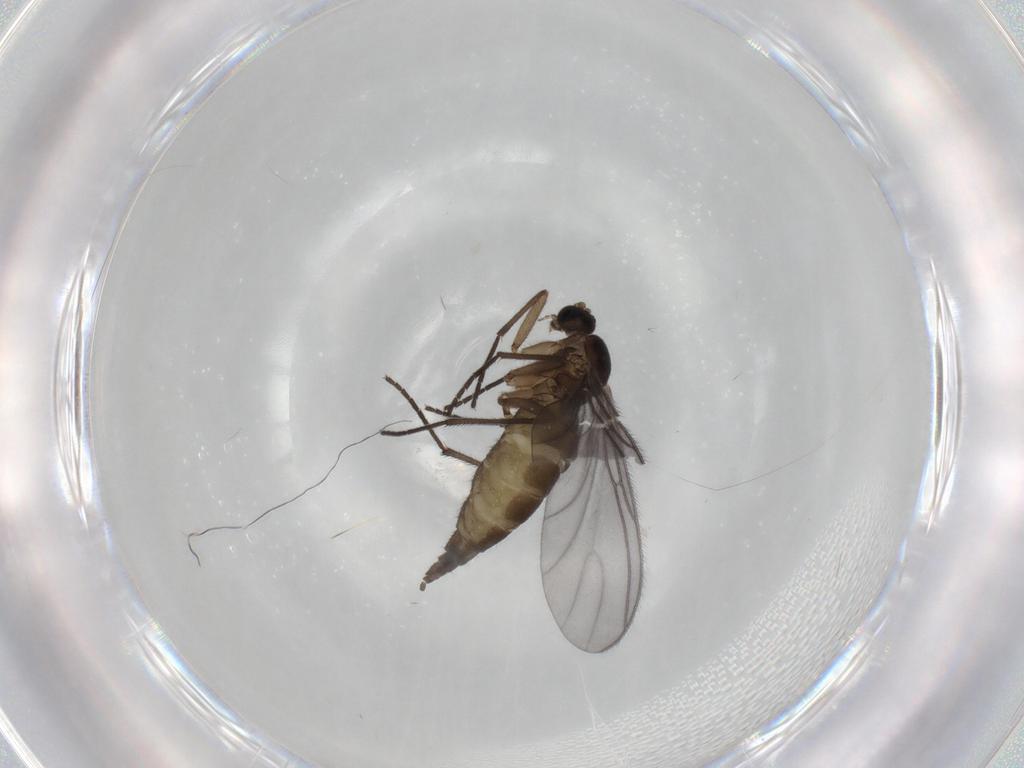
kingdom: Animalia
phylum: Arthropoda
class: Insecta
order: Diptera
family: Sciaridae
